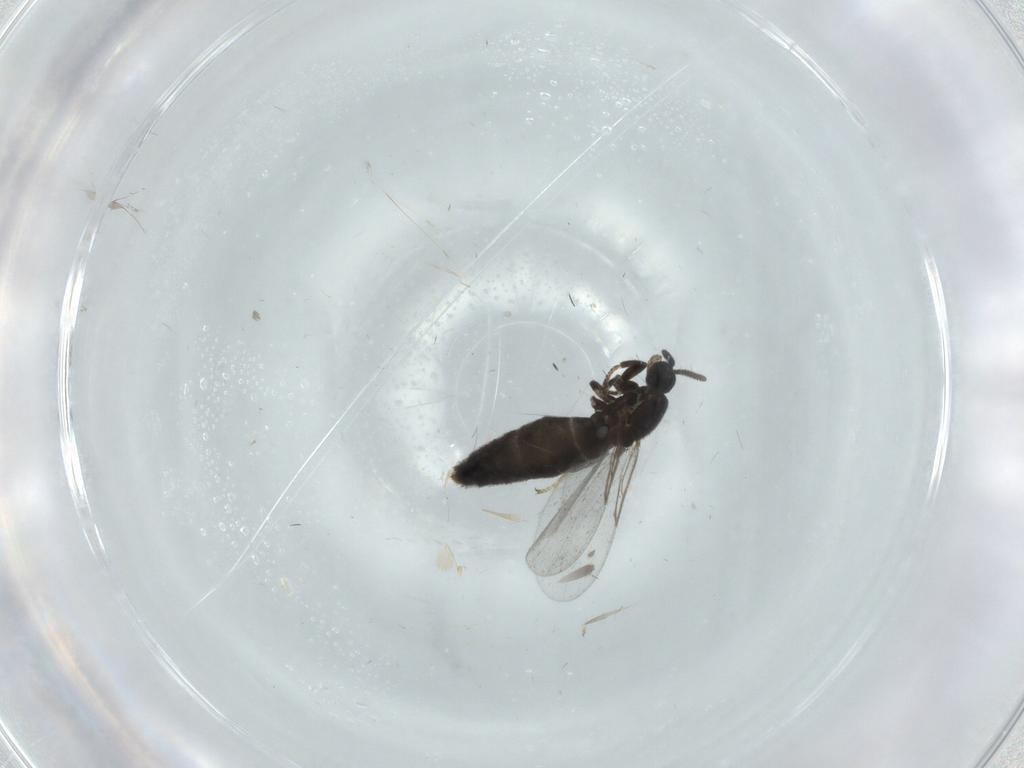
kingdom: Animalia
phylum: Arthropoda
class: Insecta
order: Diptera
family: Scatopsidae
